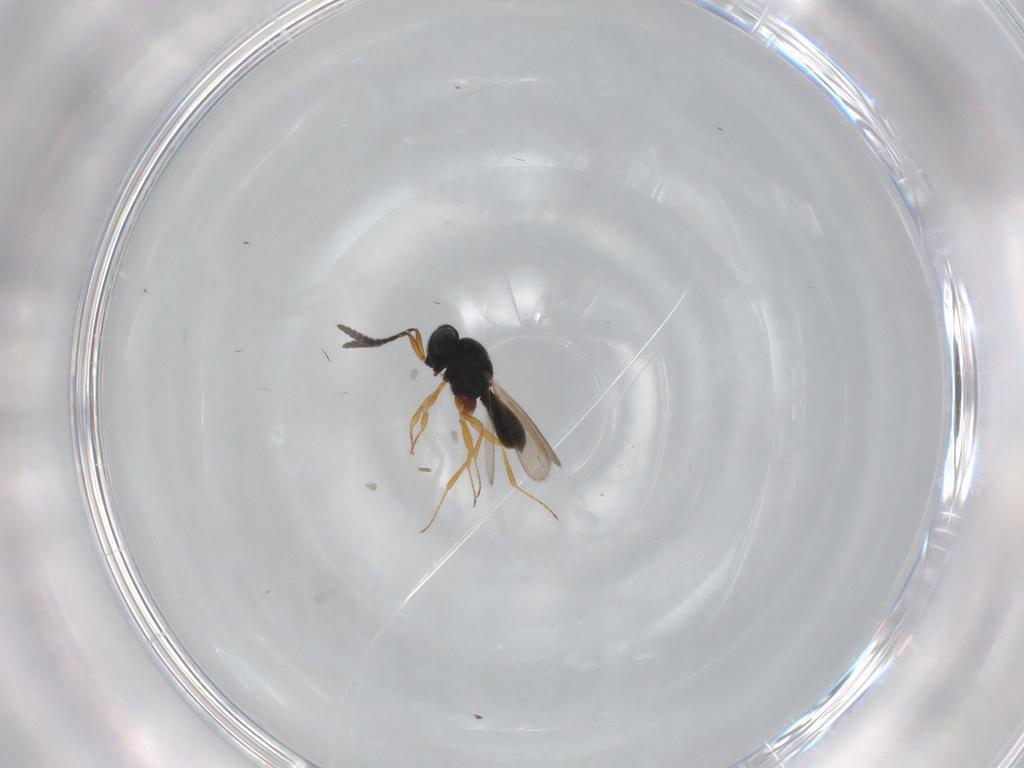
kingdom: Animalia
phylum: Arthropoda
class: Insecta
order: Hymenoptera
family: Scelionidae
